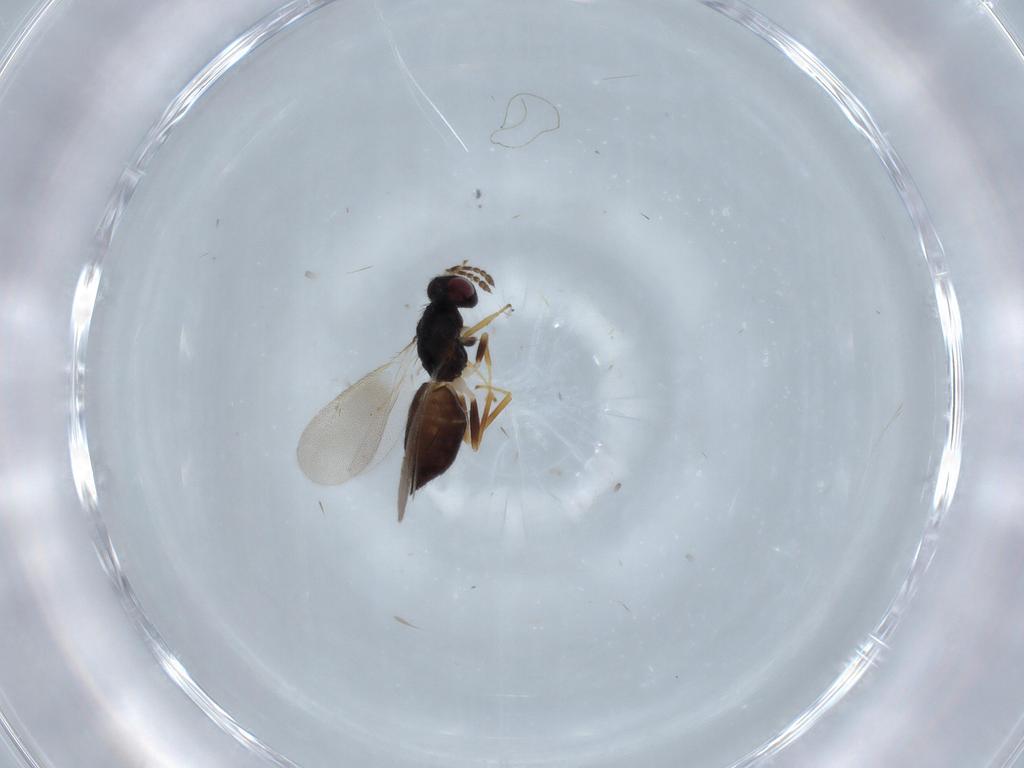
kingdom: Animalia
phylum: Arthropoda
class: Insecta
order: Hymenoptera
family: Eulophidae
